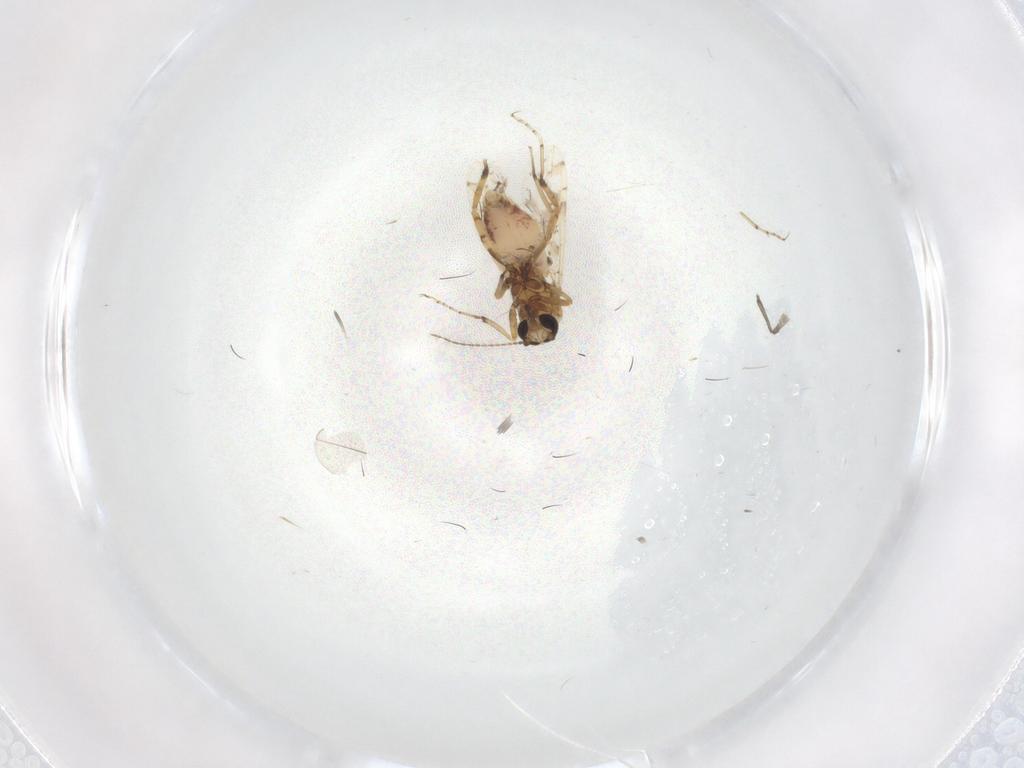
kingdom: Animalia
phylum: Arthropoda
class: Insecta
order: Diptera
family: Ceratopogonidae
